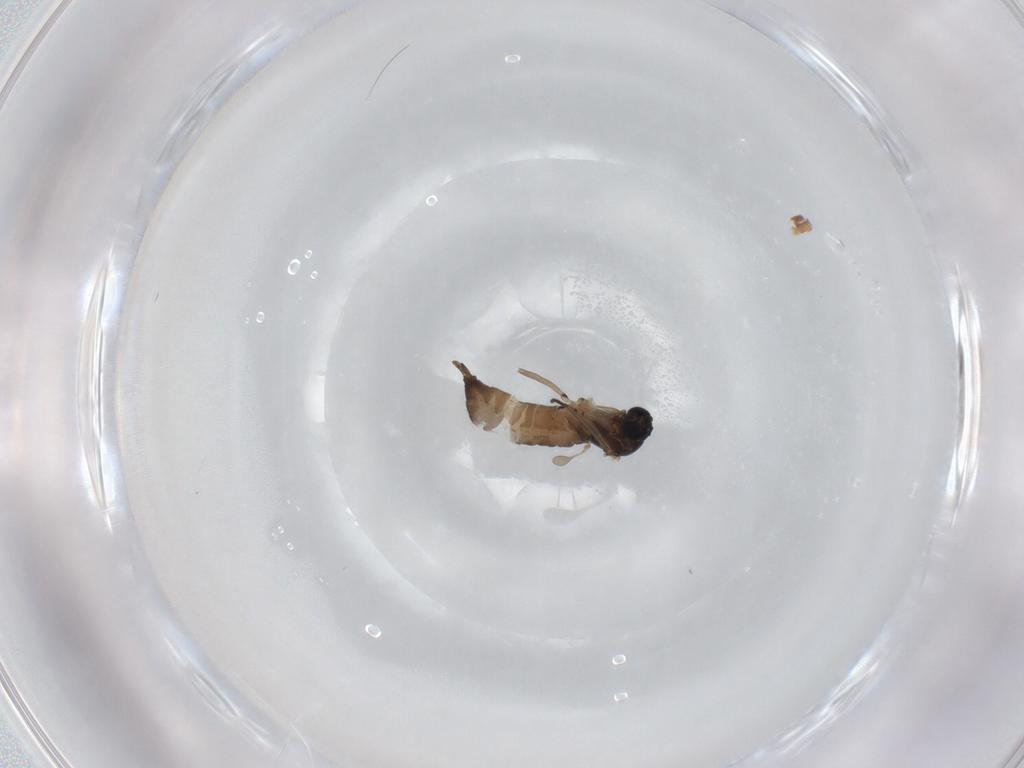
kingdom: Animalia
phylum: Arthropoda
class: Insecta
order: Diptera
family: Sciaridae
